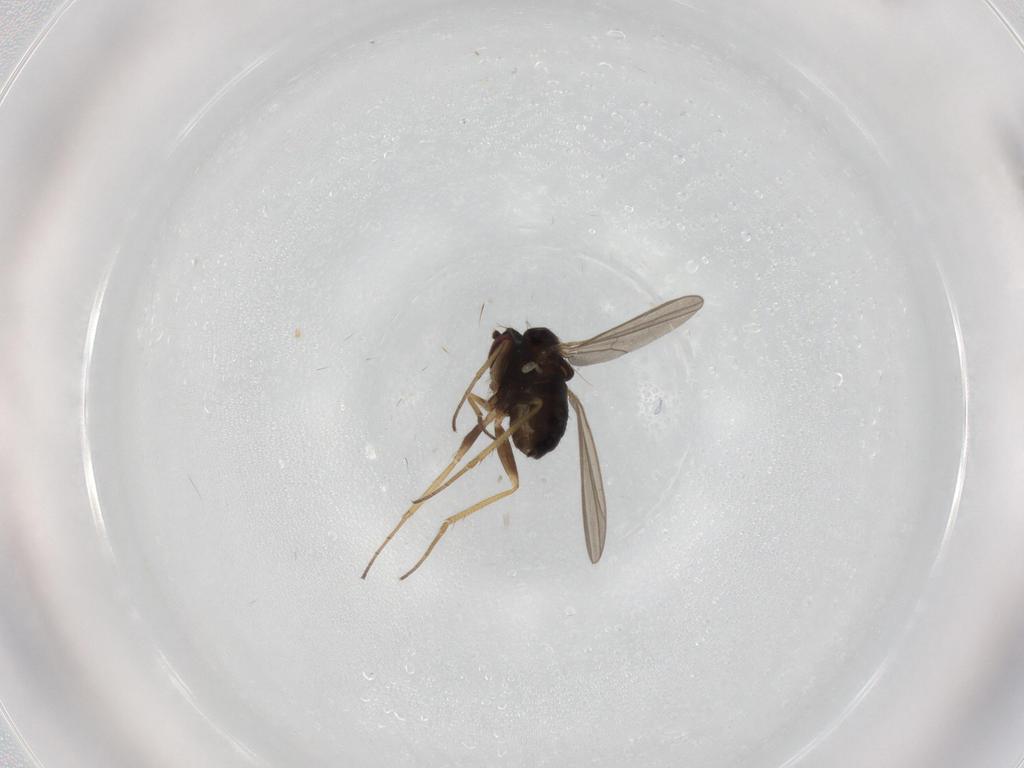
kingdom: Animalia
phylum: Arthropoda
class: Insecta
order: Diptera
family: Dolichopodidae
